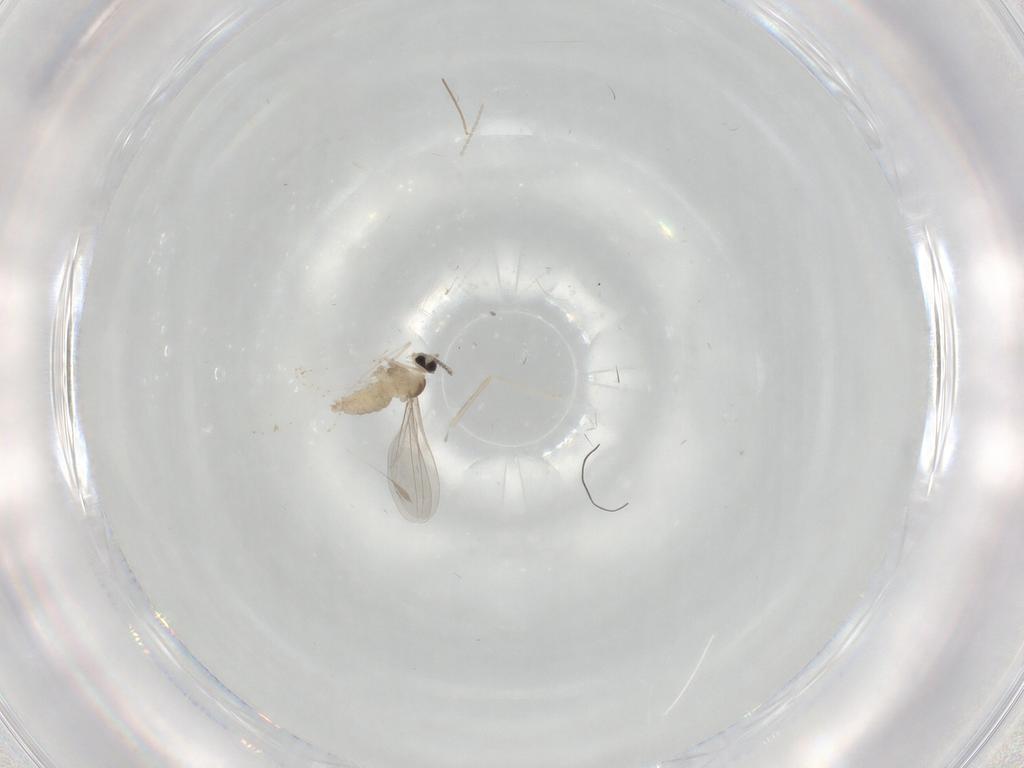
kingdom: Animalia
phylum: Arthropoda
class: Insecta
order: Diptera
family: Cecidomyiidae
